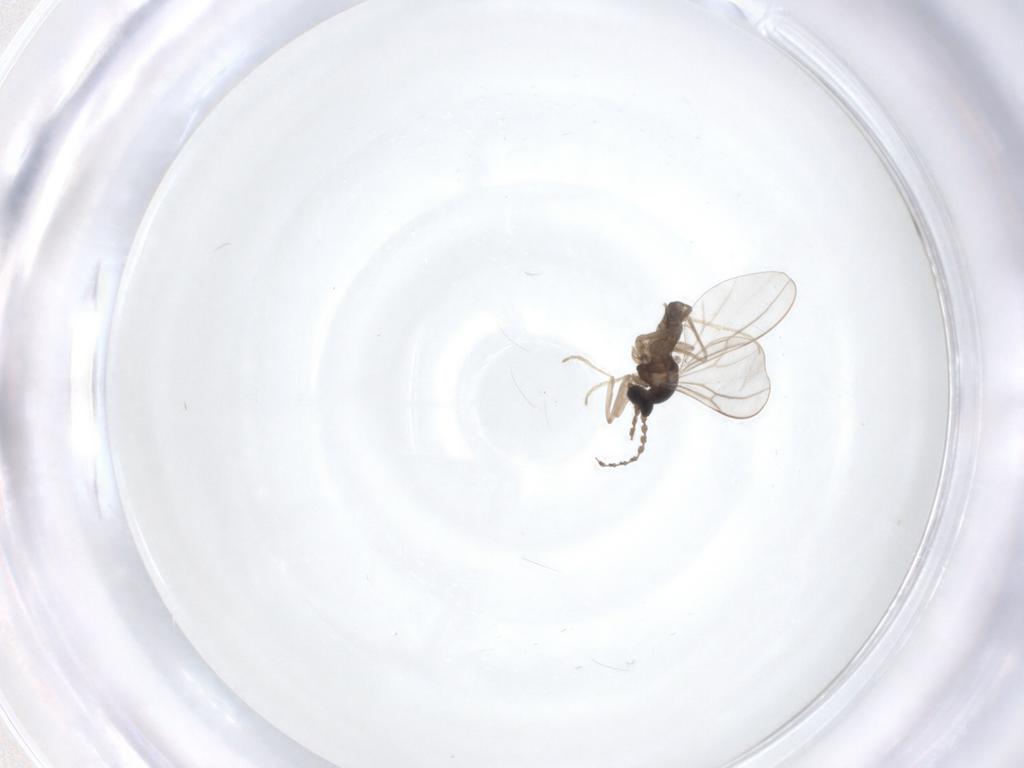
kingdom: Animalia
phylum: Arthropoda
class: Insecta
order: Diptera
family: Cecidomyiidae
